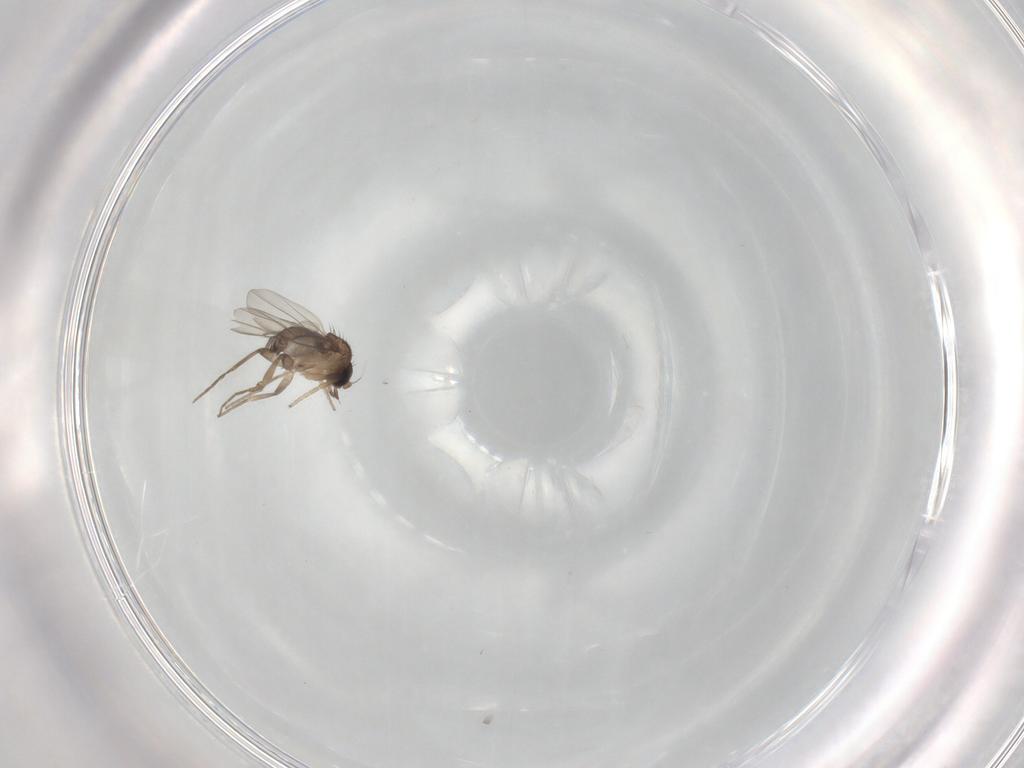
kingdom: Animalia
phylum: Arthropoda
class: Insecta
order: Diptera
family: Phoridae
